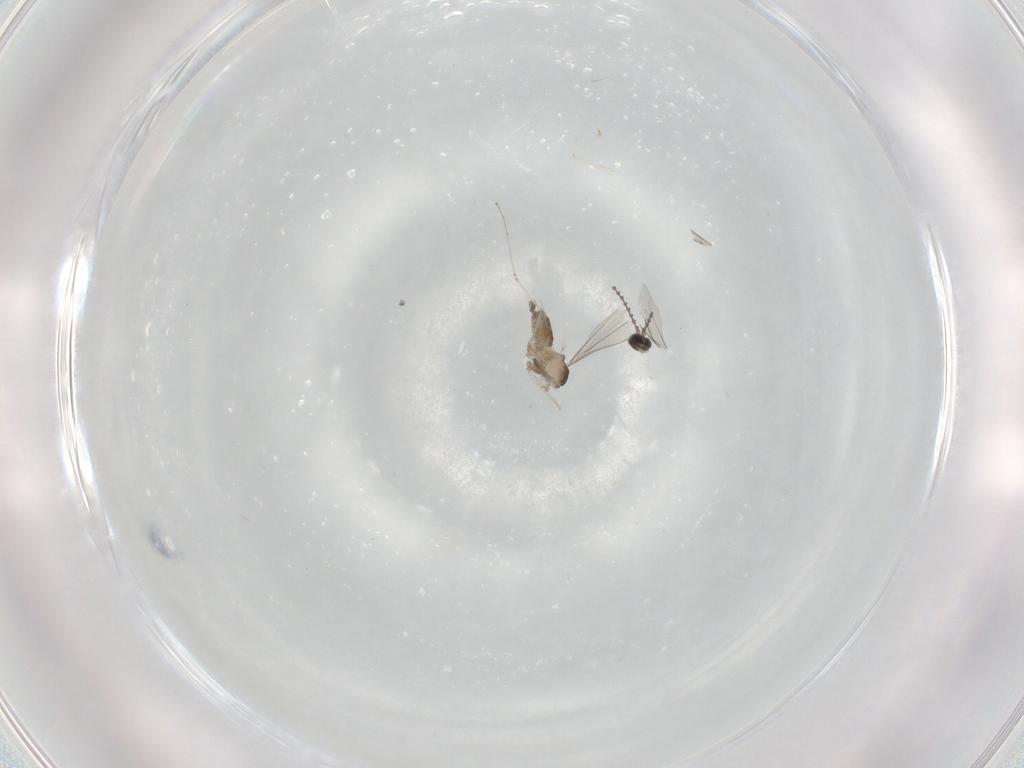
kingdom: Animalia
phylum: Arthropoda
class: Insecta
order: Diptera
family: Cecidomyiidae
